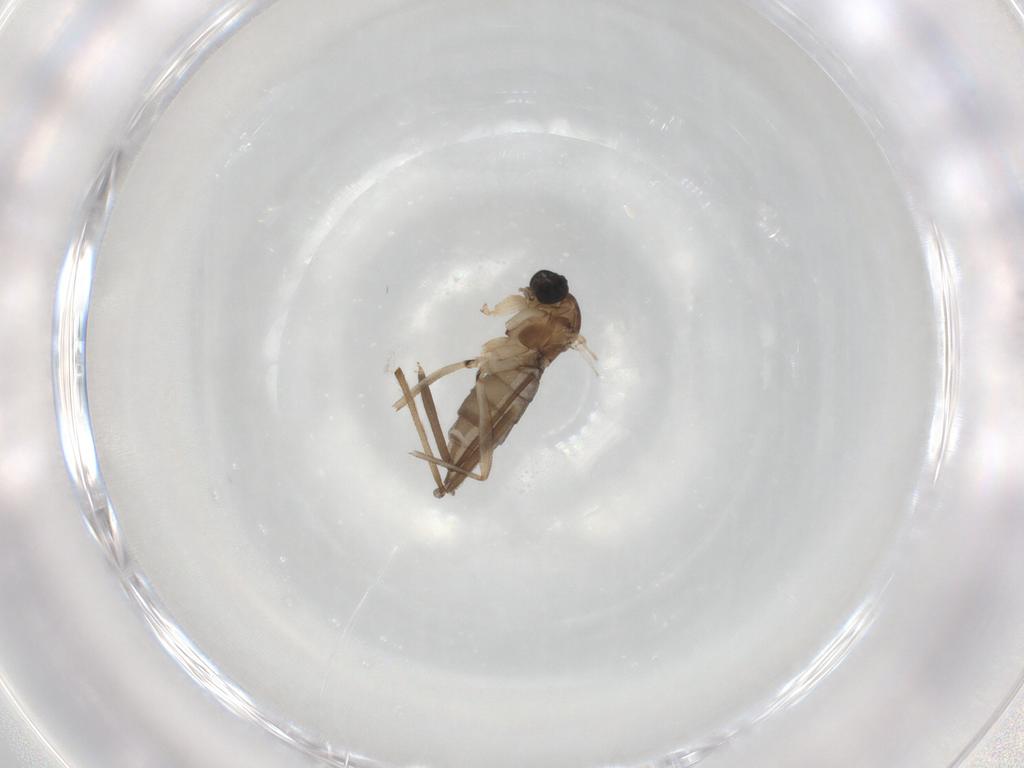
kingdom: Animalia
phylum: Arthropoda
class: Insecta
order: Diptera
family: Sciaridae
